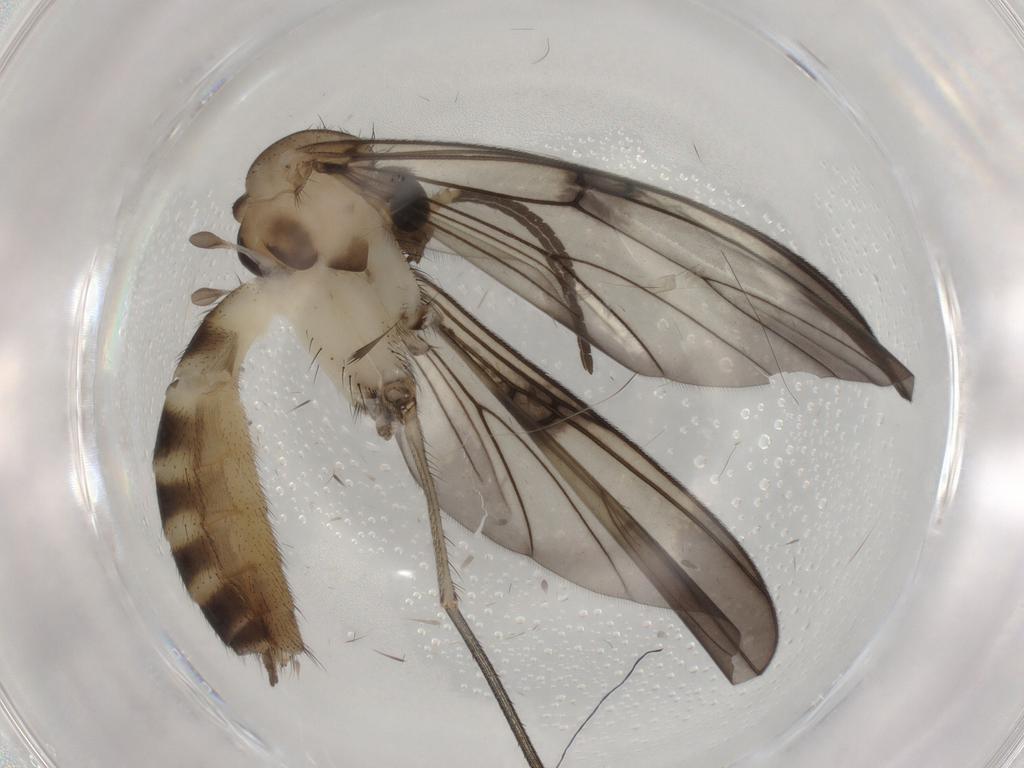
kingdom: Animalia
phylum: Arthropoda
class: Insecta
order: Diptera
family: Mycetophilidae
